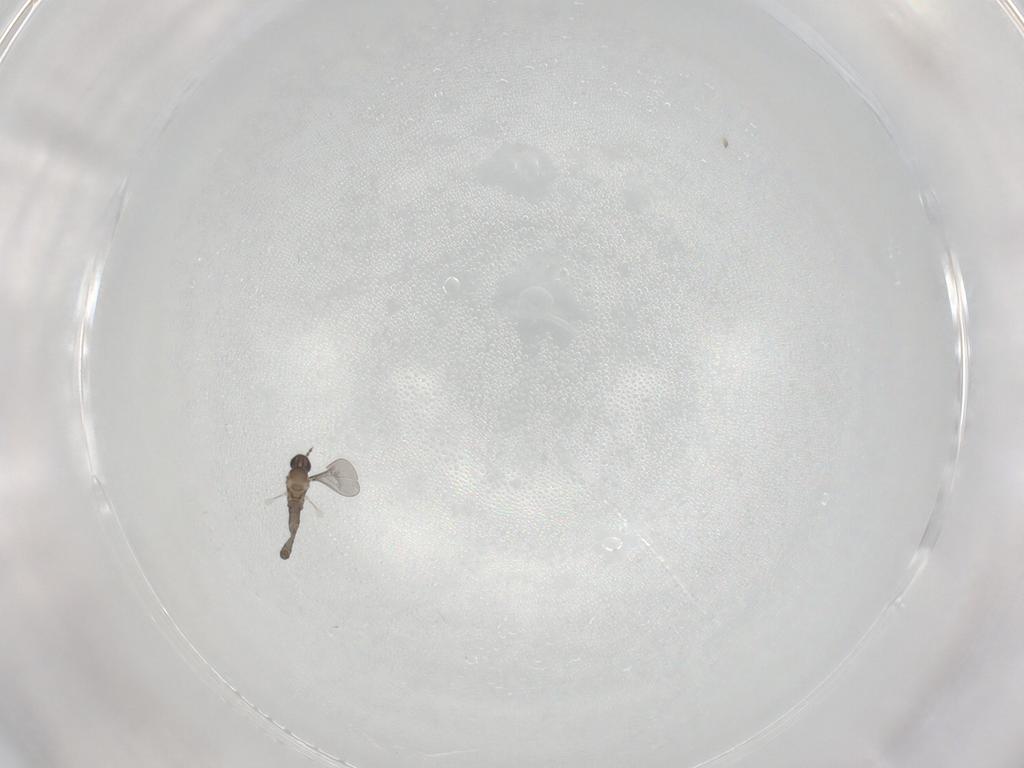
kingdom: Animalia
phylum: Arthropoda
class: Insecta
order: Diptera
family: Cecidomyiidae
